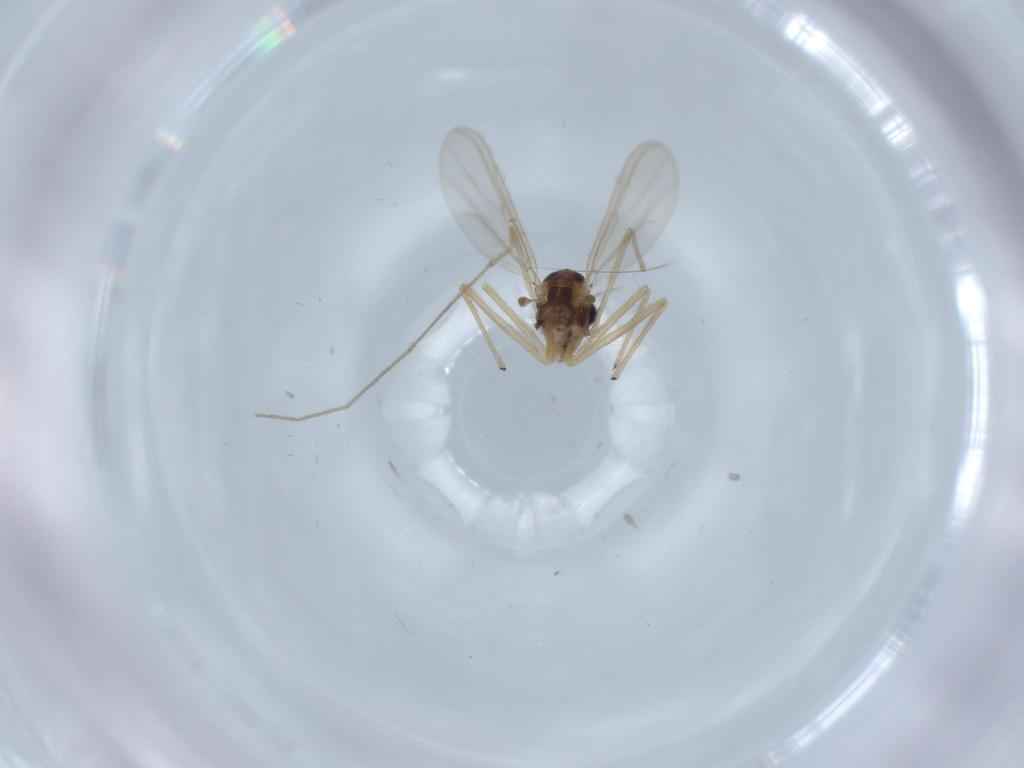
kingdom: Animalia
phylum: Arthropoda
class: Insecta
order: Diptera
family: Chironomidae
